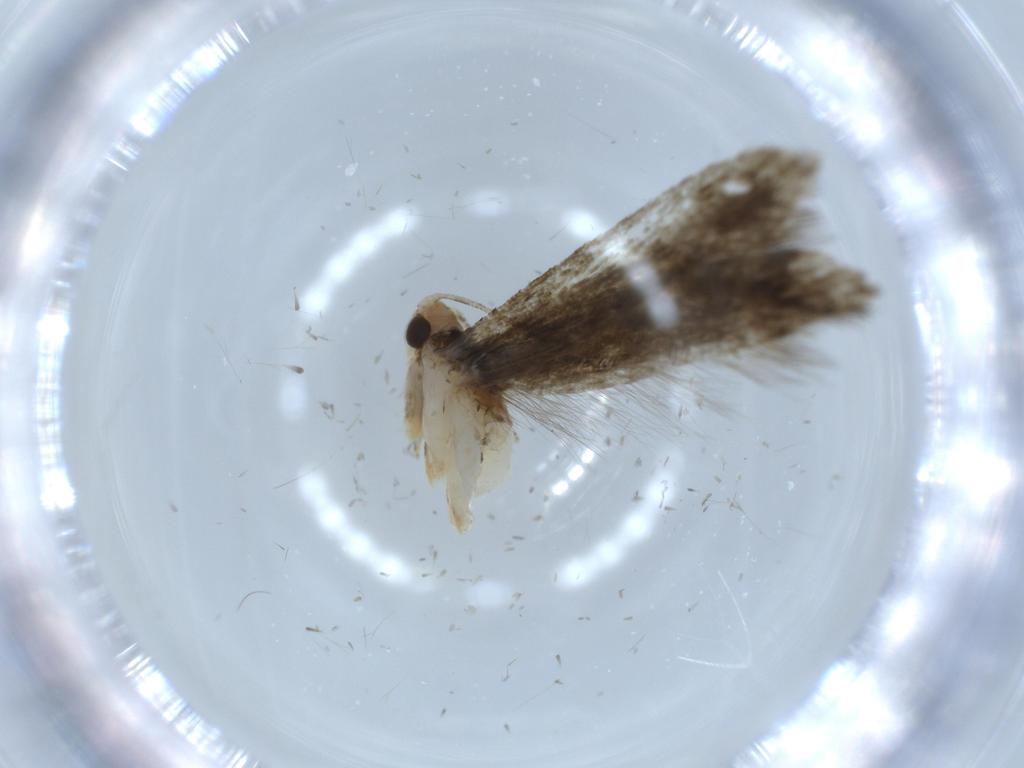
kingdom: Animalia
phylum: Arthropoda
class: Insecta
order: Lepidoptera
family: Meessiidae
